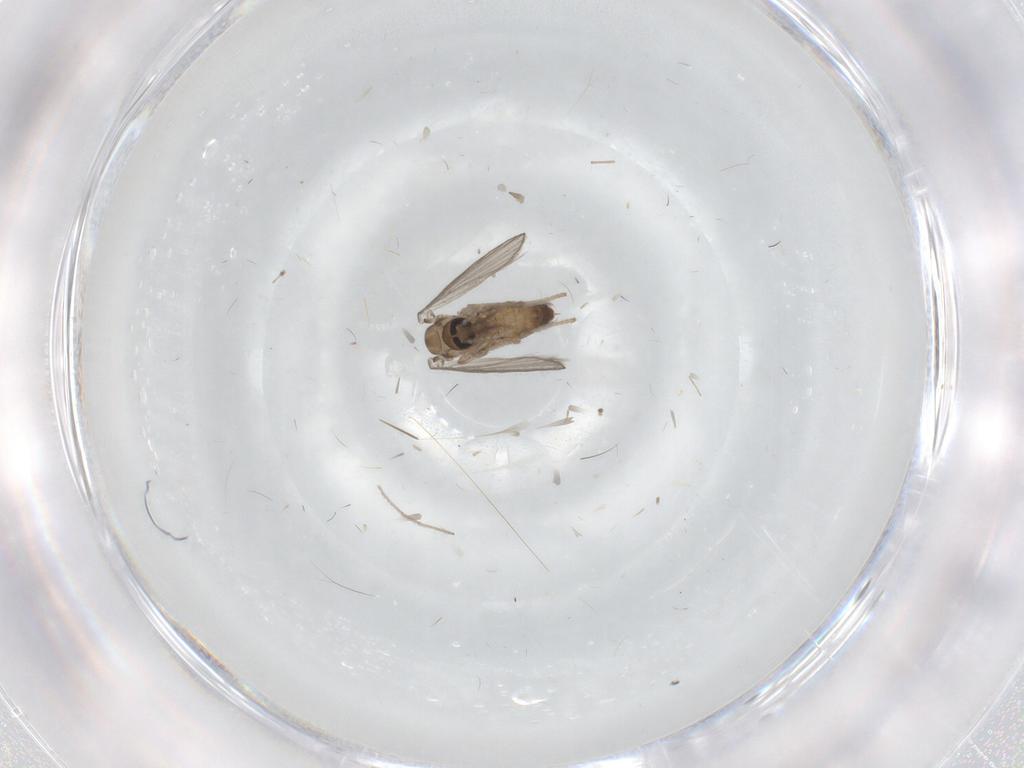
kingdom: Animalia
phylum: Arthropoda
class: Insecta
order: Diptera
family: Psychodidae
